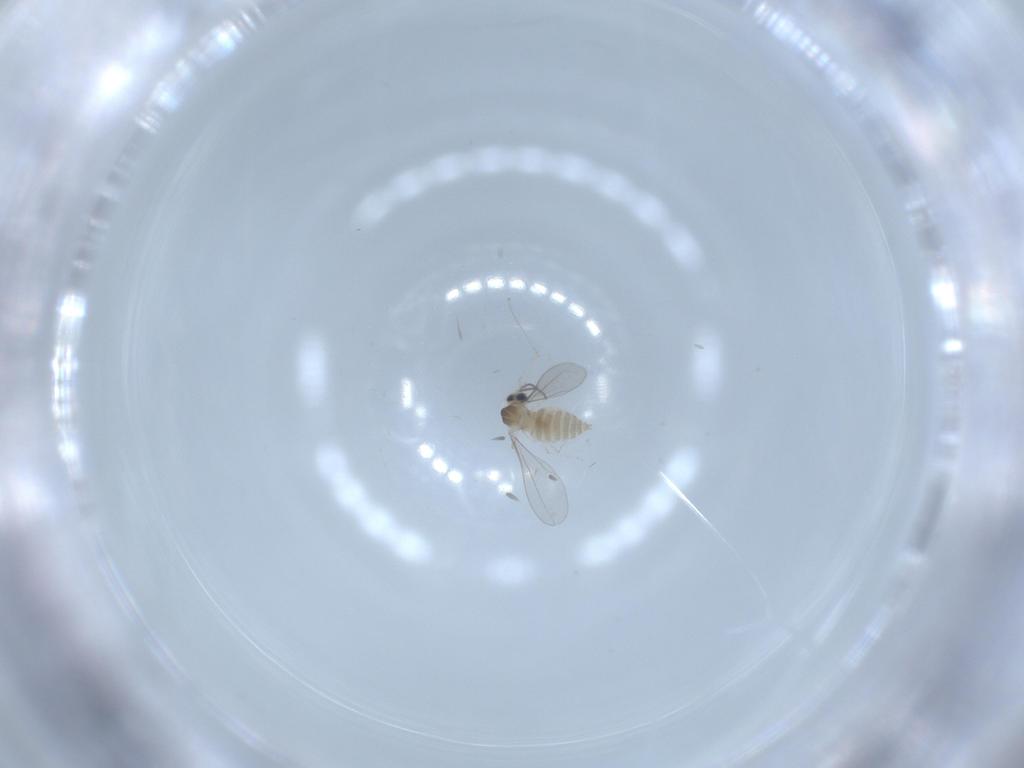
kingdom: Animalia
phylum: Arthropoda
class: Insecta
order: Diptera
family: Cecidomyiidae
